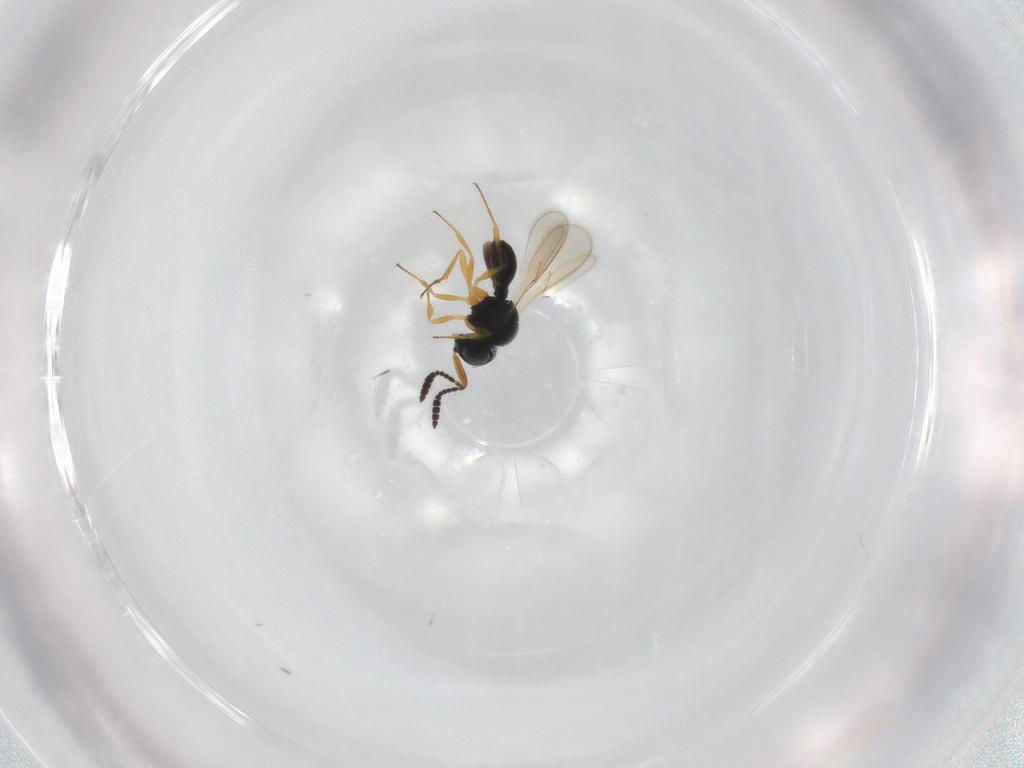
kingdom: Animalia
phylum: Arthropoda
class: Insecta
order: Hymenoptera
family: Scelionidae
